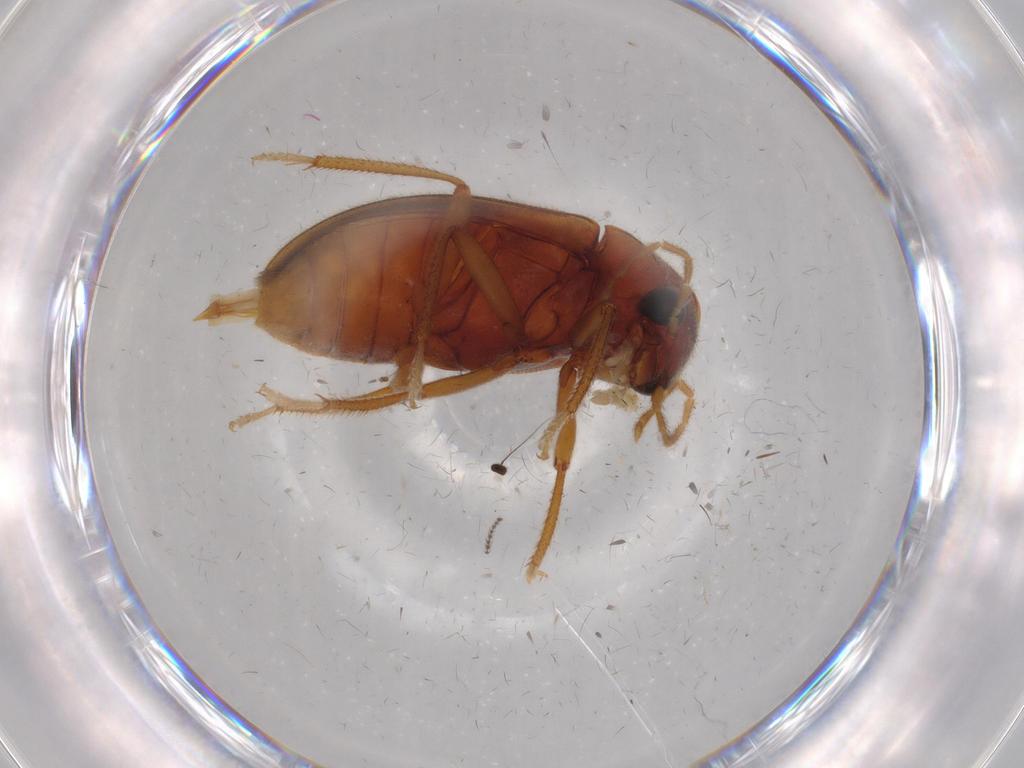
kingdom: Animalia
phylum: Arthropoda
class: Insecta
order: Coleoptera
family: Ptilodactylidae
